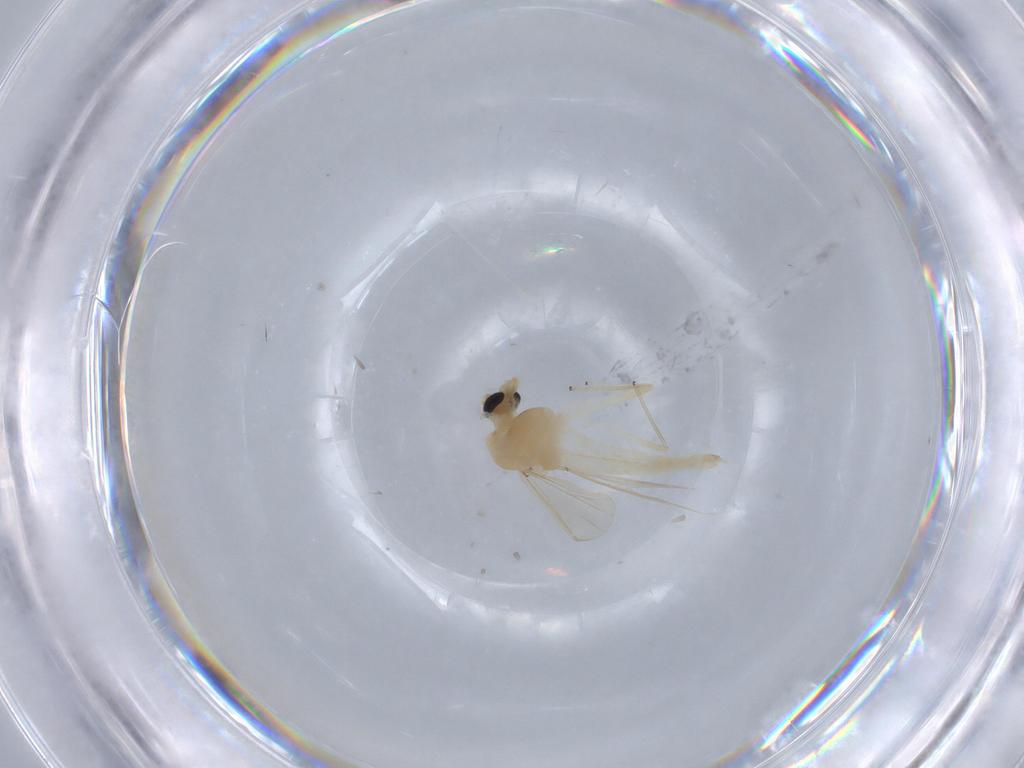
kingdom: Animalia
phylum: Arthropoda
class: Insecta
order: Diptera
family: Chironomidae
